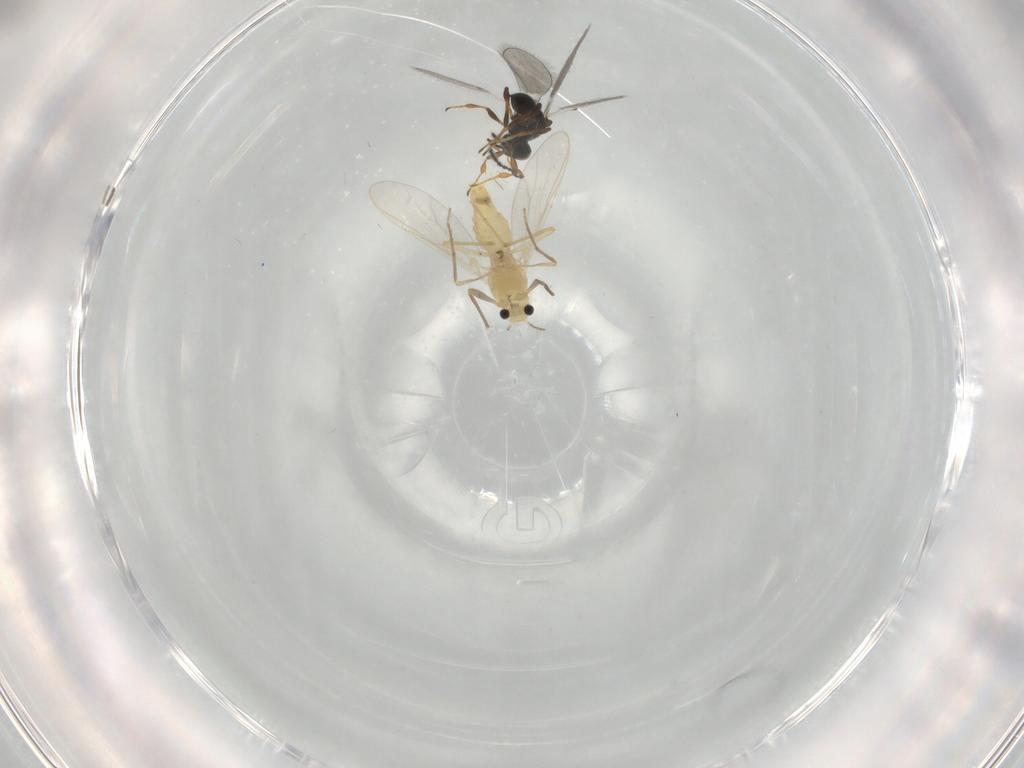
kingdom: Animalia
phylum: Arthropoda
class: Insecta
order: Diptera
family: Chironomidae
